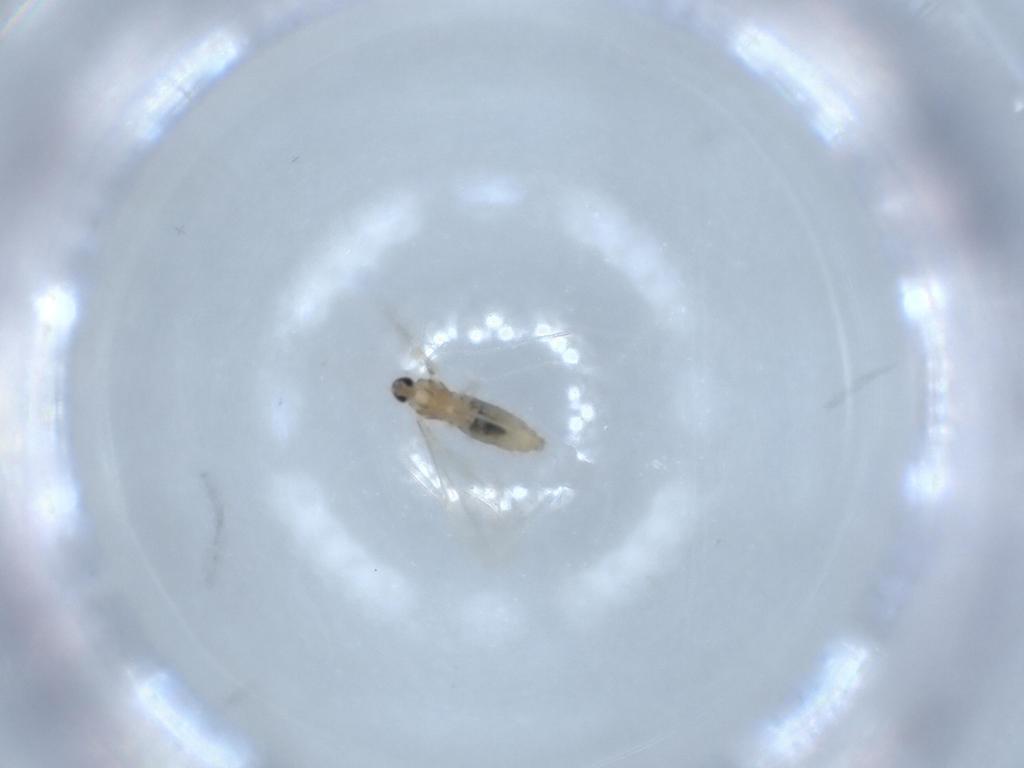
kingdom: Animalia
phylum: Arthropoda
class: Insecta
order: Diptera
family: Cecidomyiidae
